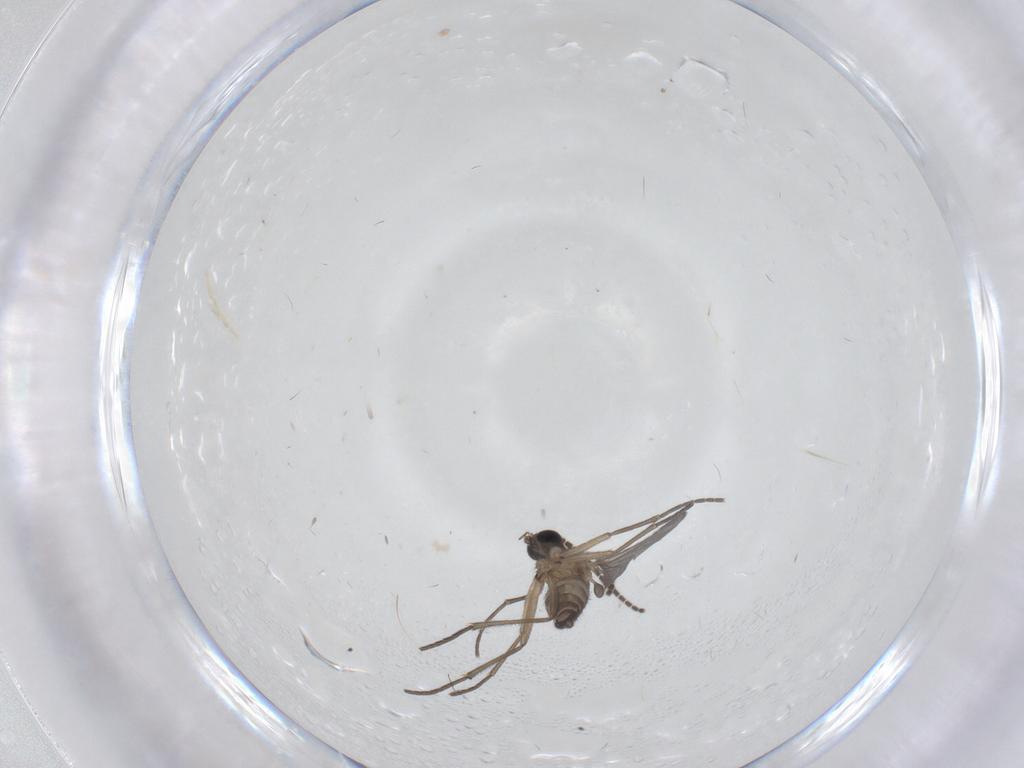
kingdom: Animalia
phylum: Arthropoda
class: Insecta
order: Diptera
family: Sciaridae
